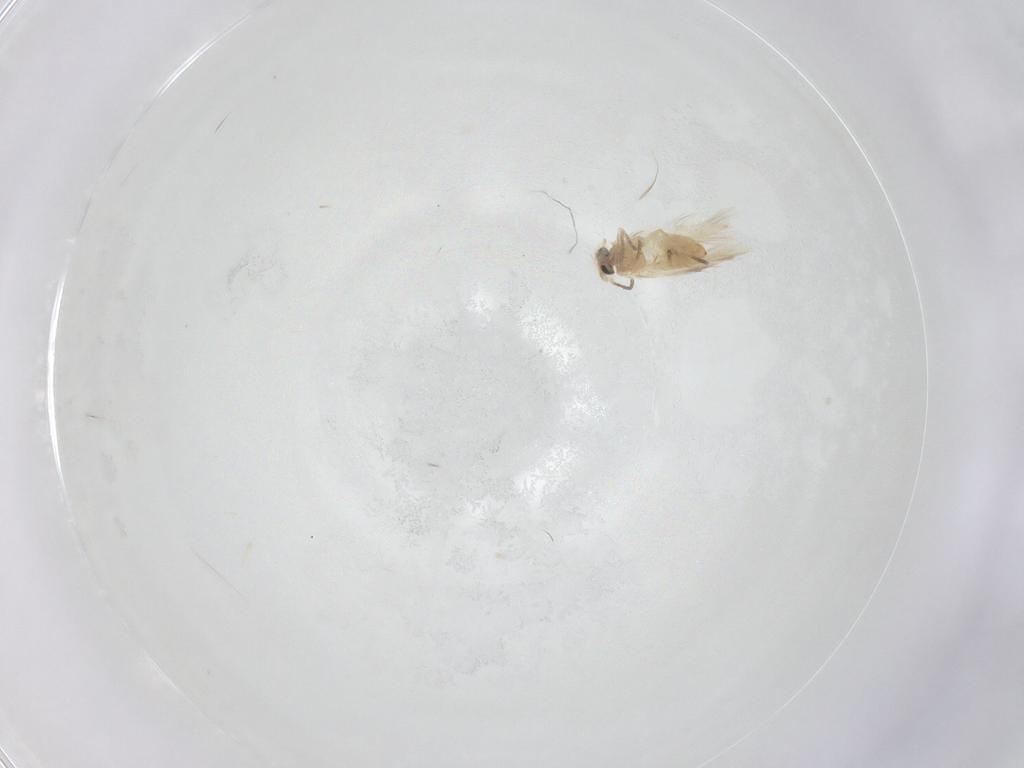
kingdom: Animalia
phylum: Arthropoda
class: Insecta
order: Lepidoptera
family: Crambidae
